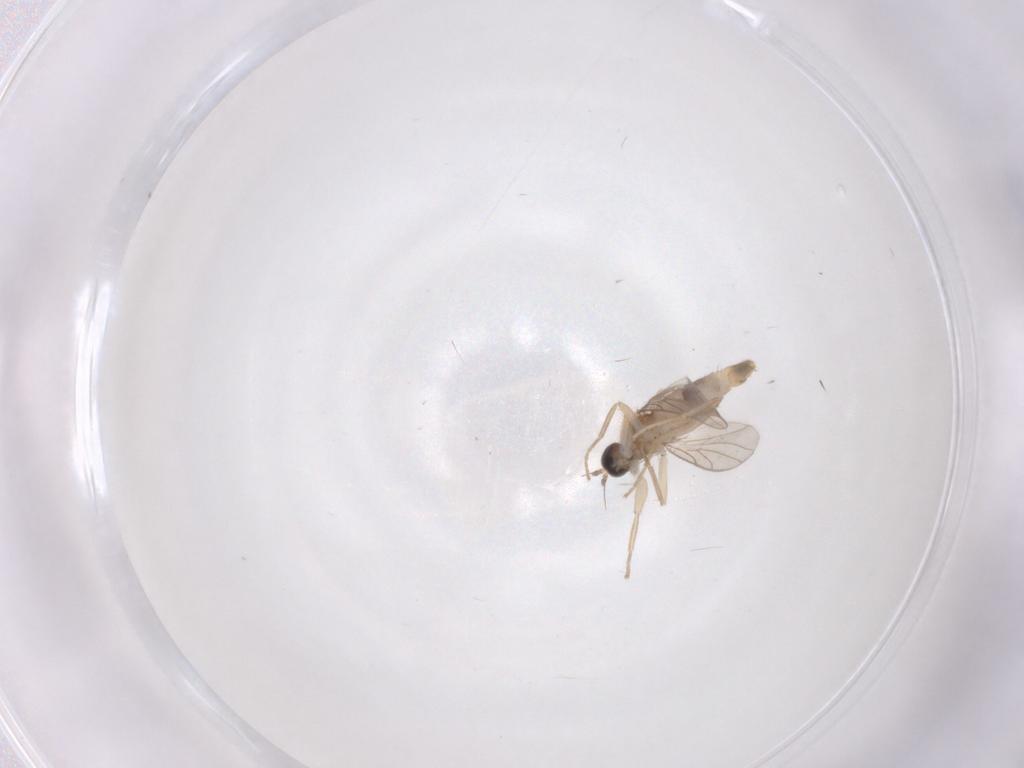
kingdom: Animalia
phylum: Arthropoda
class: Insecta
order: Diptera
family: Hybotidae
